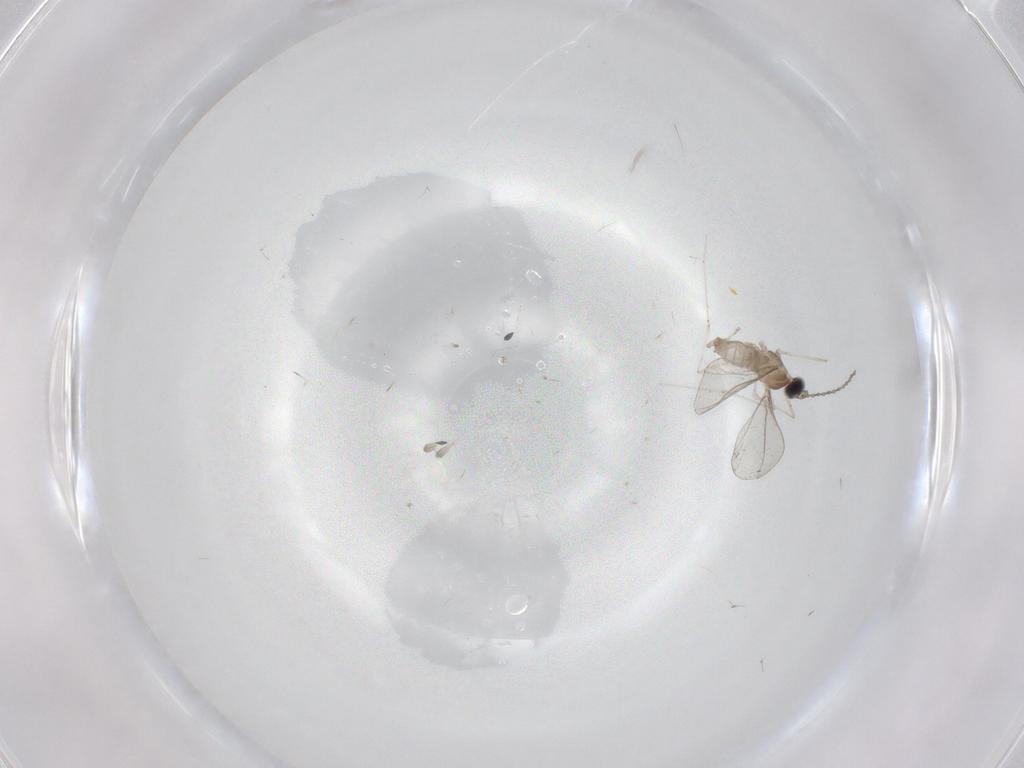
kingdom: Animalia
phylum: Arthropoda
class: Insecta
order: Diptera
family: Cecidomyiidae
